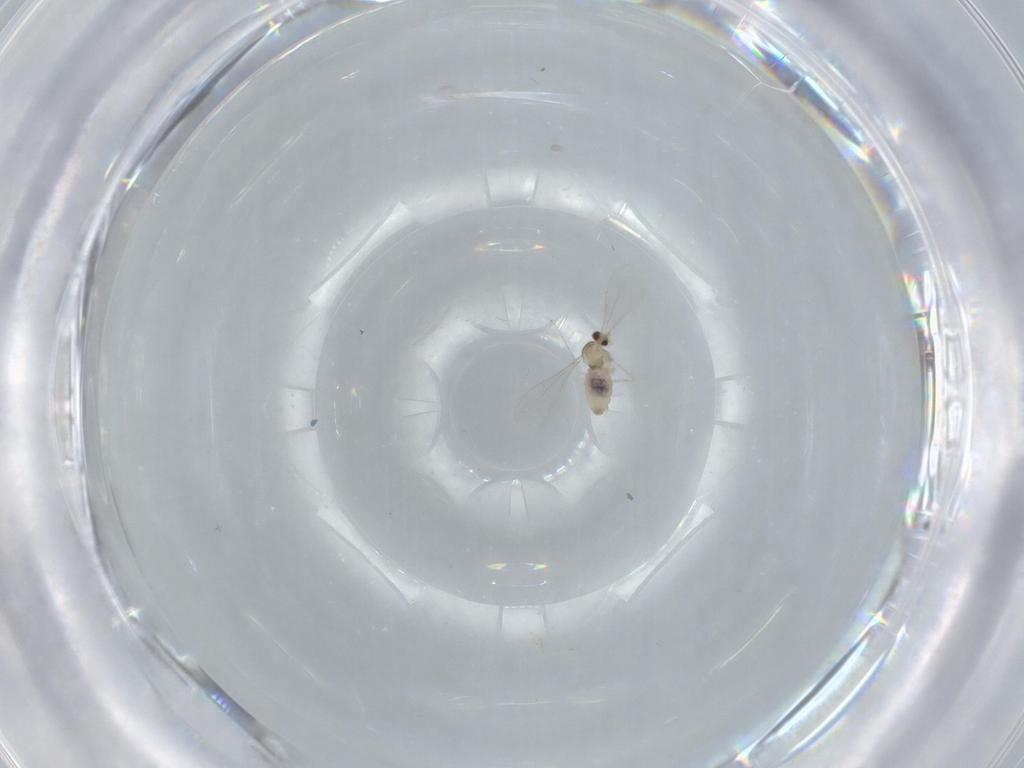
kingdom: Animalia
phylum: Arthropoda
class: Insecta
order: Diptera
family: Cecidomyiidae
